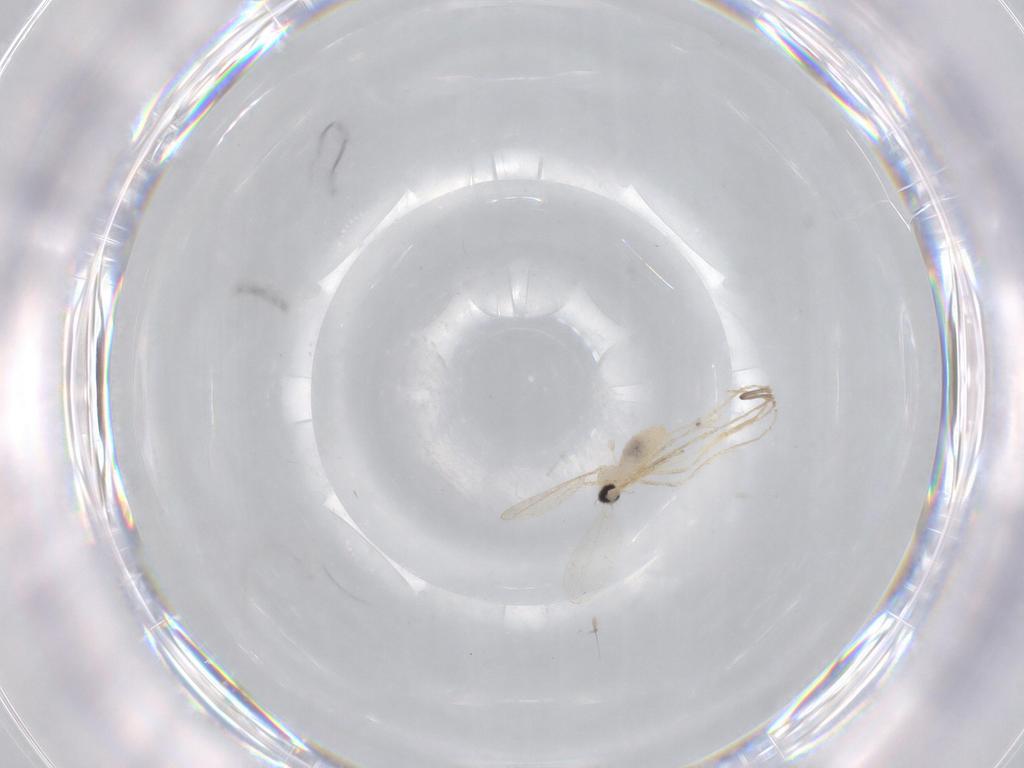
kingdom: Animalia
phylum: Arthropoda
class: Insecta
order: Diptera
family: Cecidomyiidae
